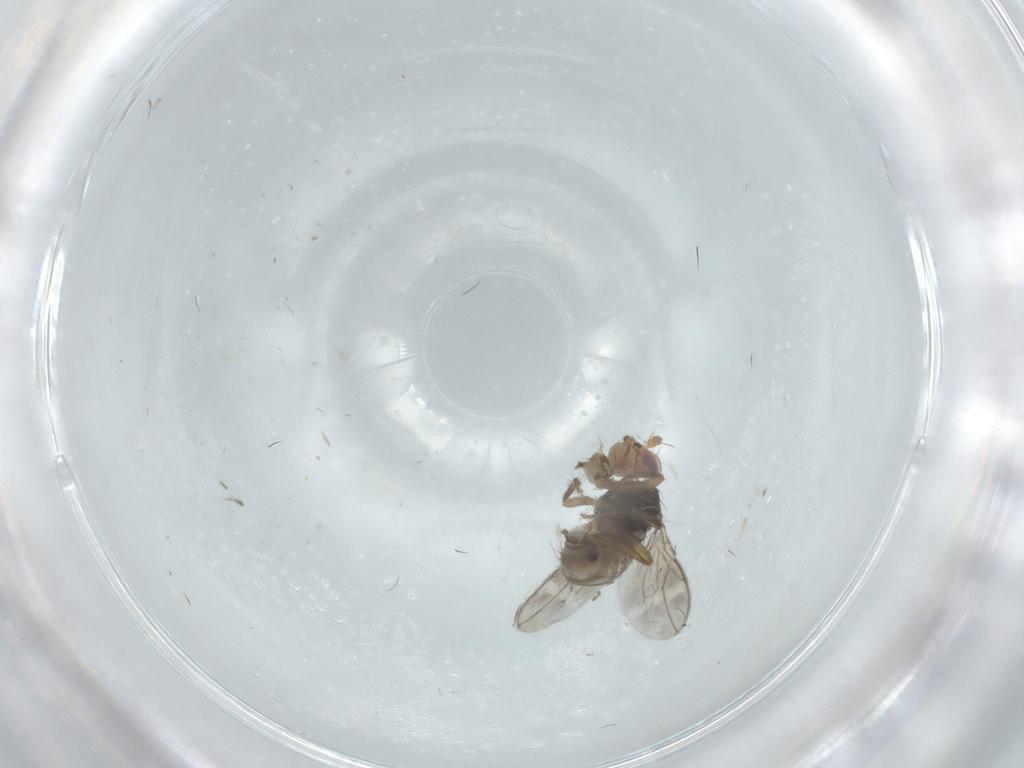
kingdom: Animalia
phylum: Arthropoda
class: Insecta
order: Diptera
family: Chironomidae
